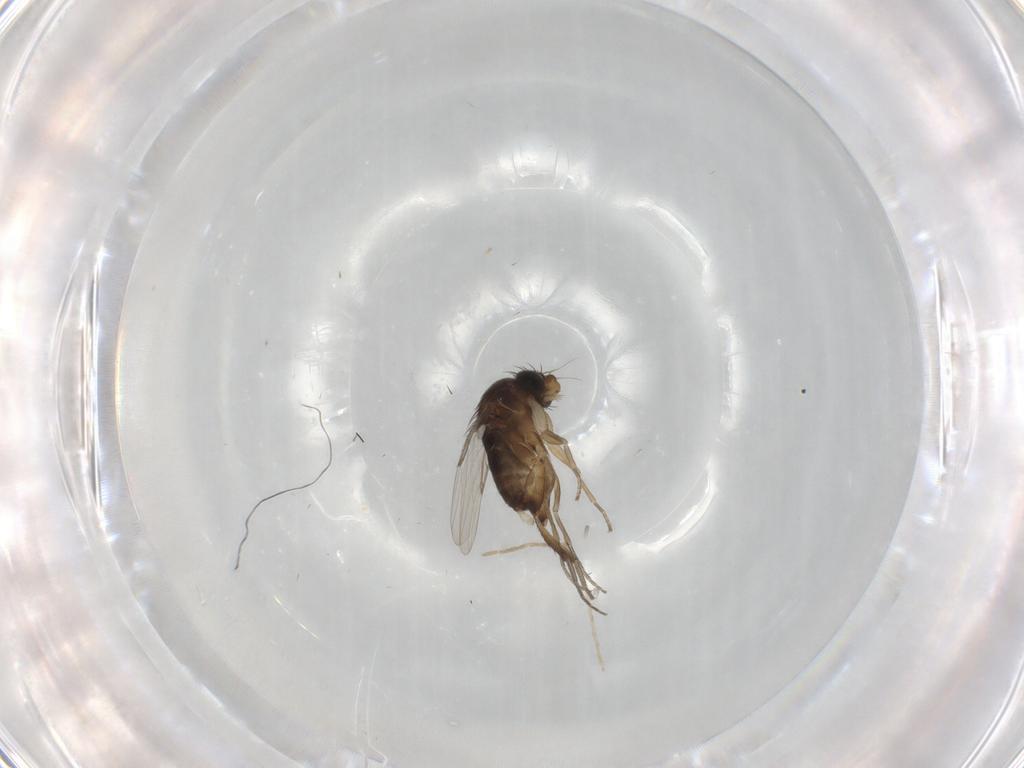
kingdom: Animalia
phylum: Arthropoda
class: Insecta
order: Diptera
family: Phoridae
